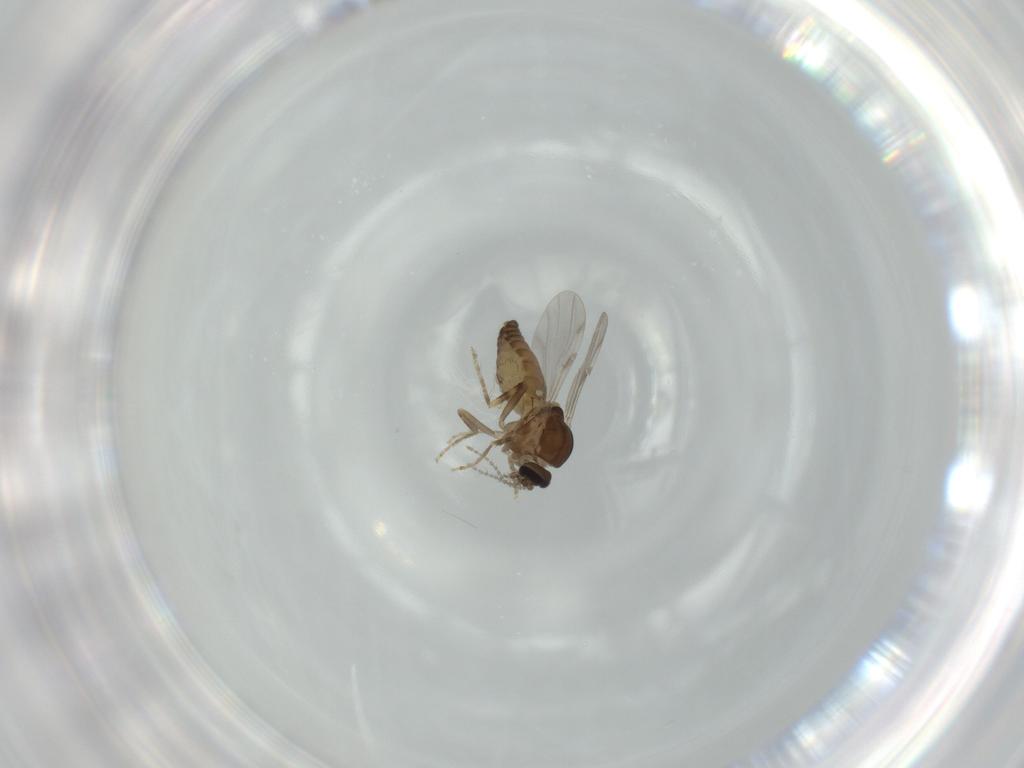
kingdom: Animalia
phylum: Arthropoda
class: Insecta
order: Diptera
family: Ceratopogonidae
